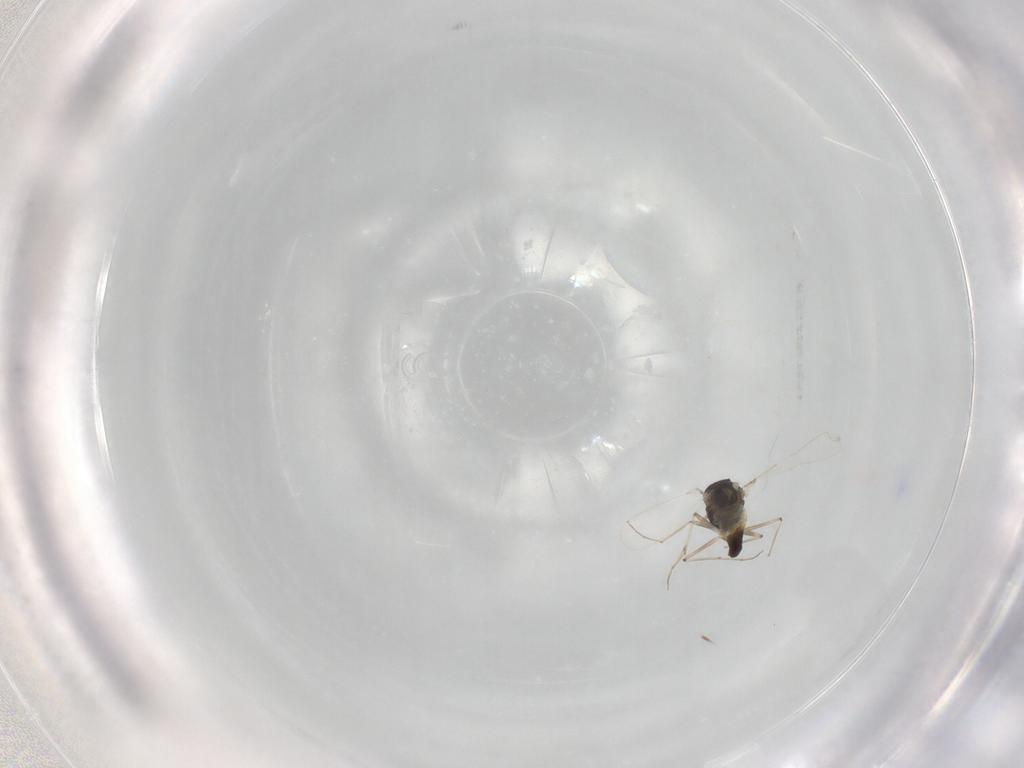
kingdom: Animalia
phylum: Arthropoda
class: Insecta
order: Diptera
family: Chironomidae
